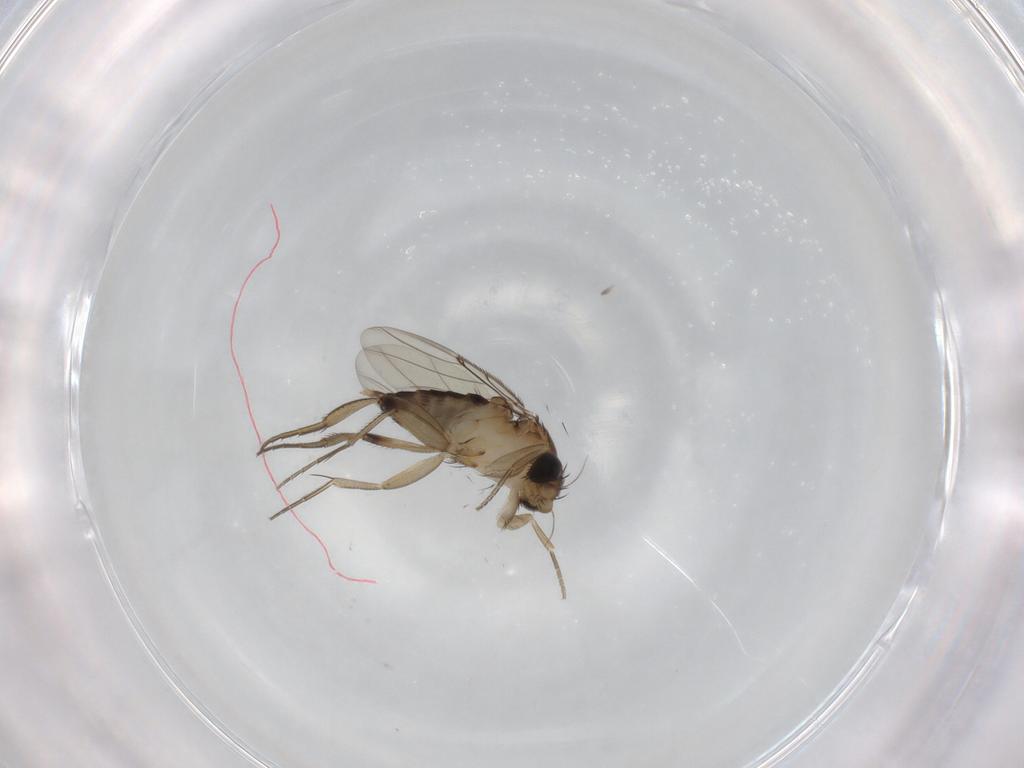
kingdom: Animalia
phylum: Arthropoda
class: Insecta
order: Diptera
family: Phoridae
